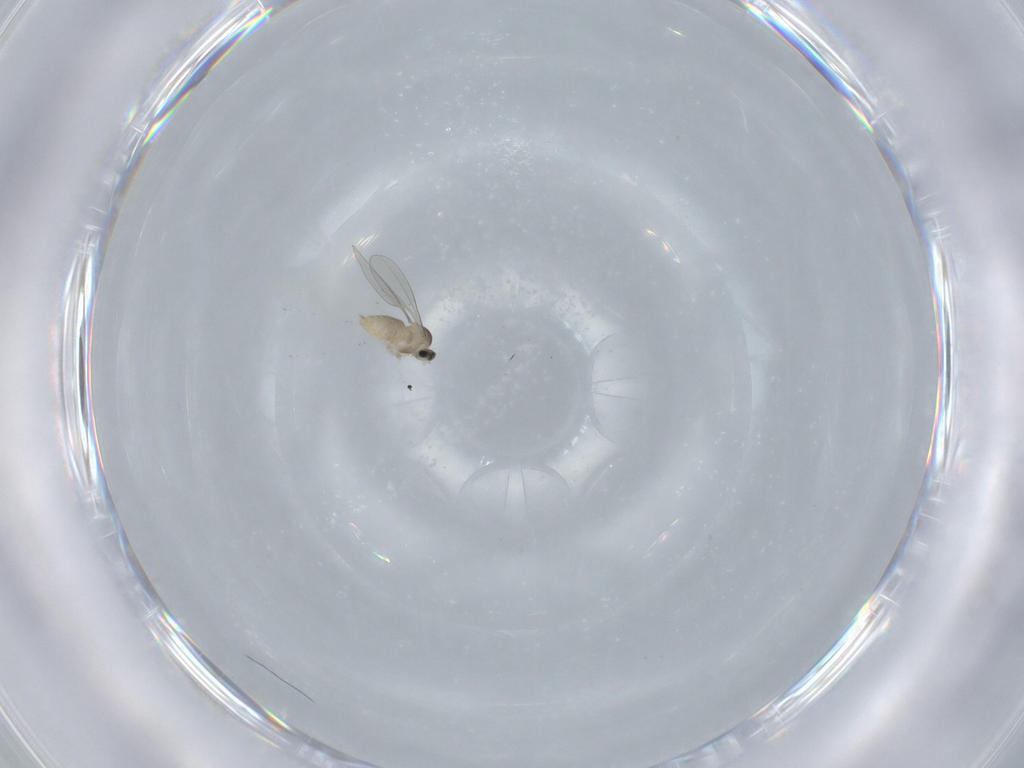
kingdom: Animalia
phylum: Arthropoda
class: Insecta
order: Diptera
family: Cecidomyiidae
